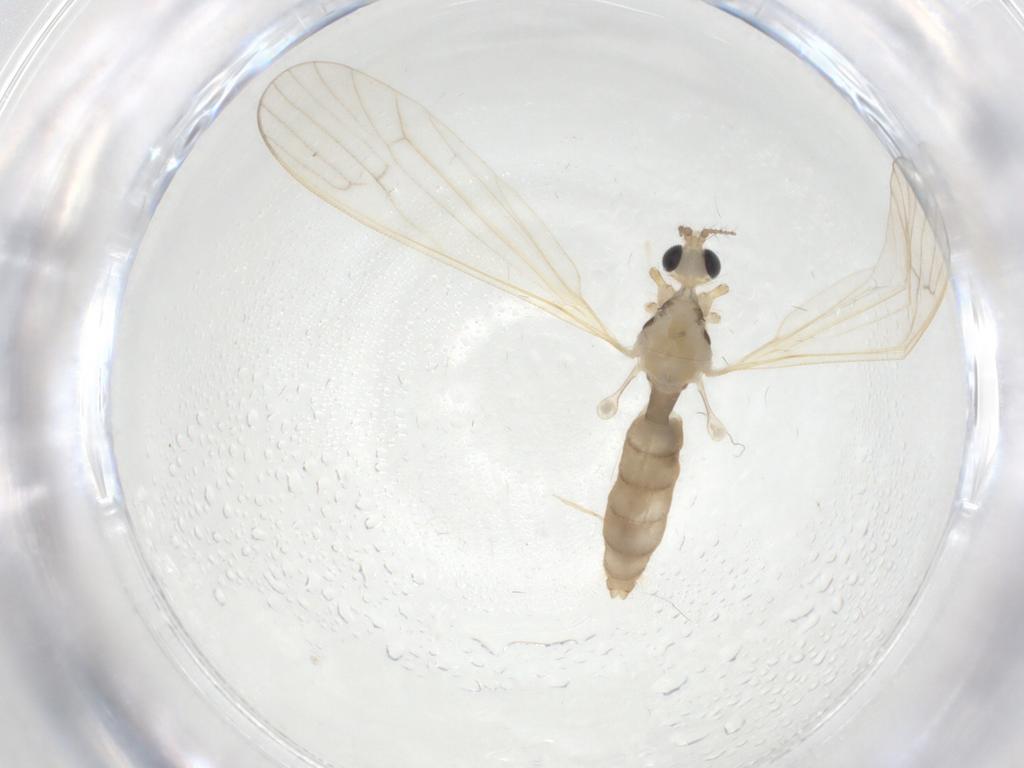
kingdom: Animalia
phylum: Arthropoda
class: Insecta
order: Diptera
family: Limoniidae
